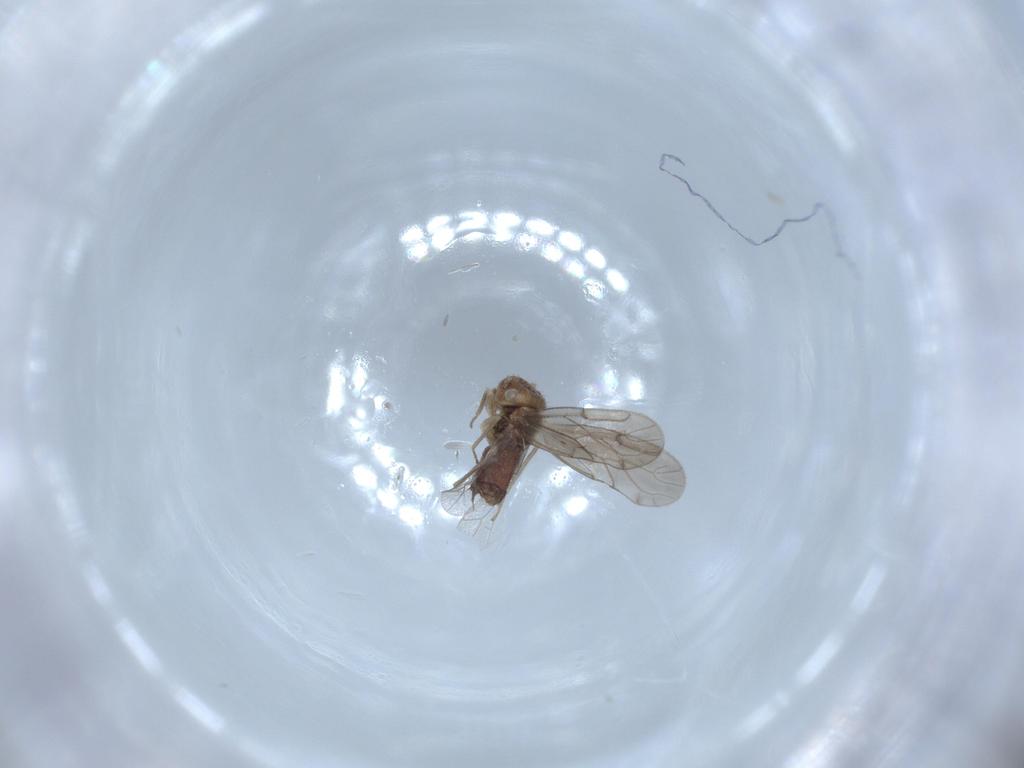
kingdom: Animalia
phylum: Arthropoda
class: Insecta
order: Psocodea
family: Ectopsocidae
